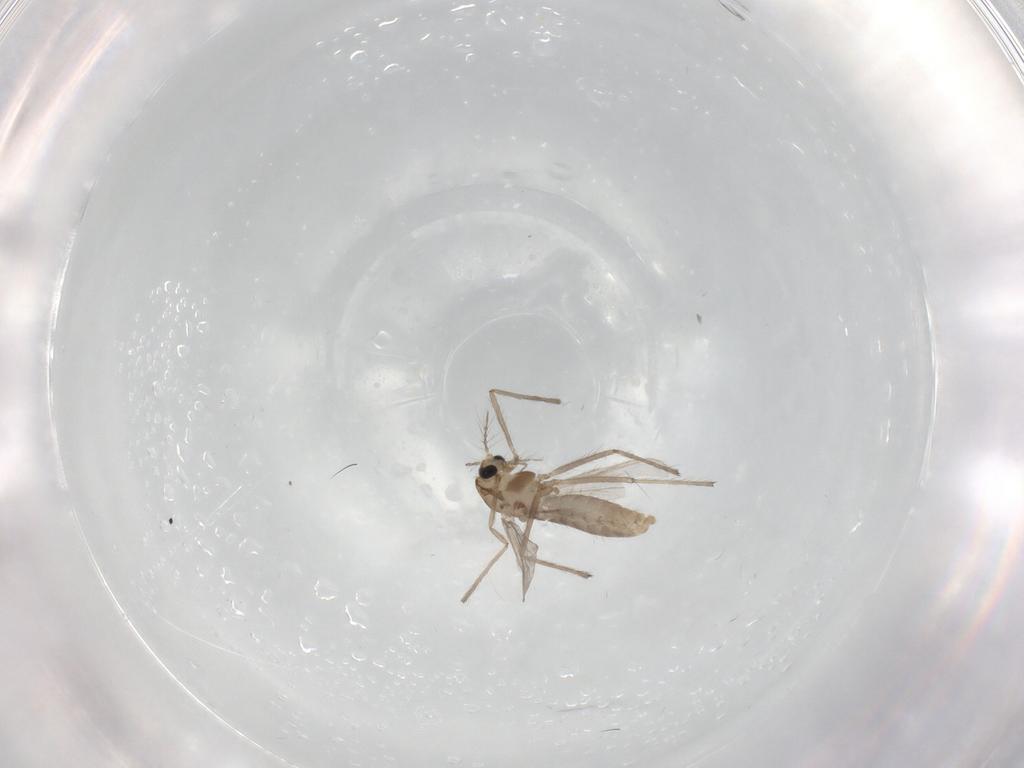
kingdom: Animalia
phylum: Arthropoda
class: Insecta
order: Diptera
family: Chironomidae
